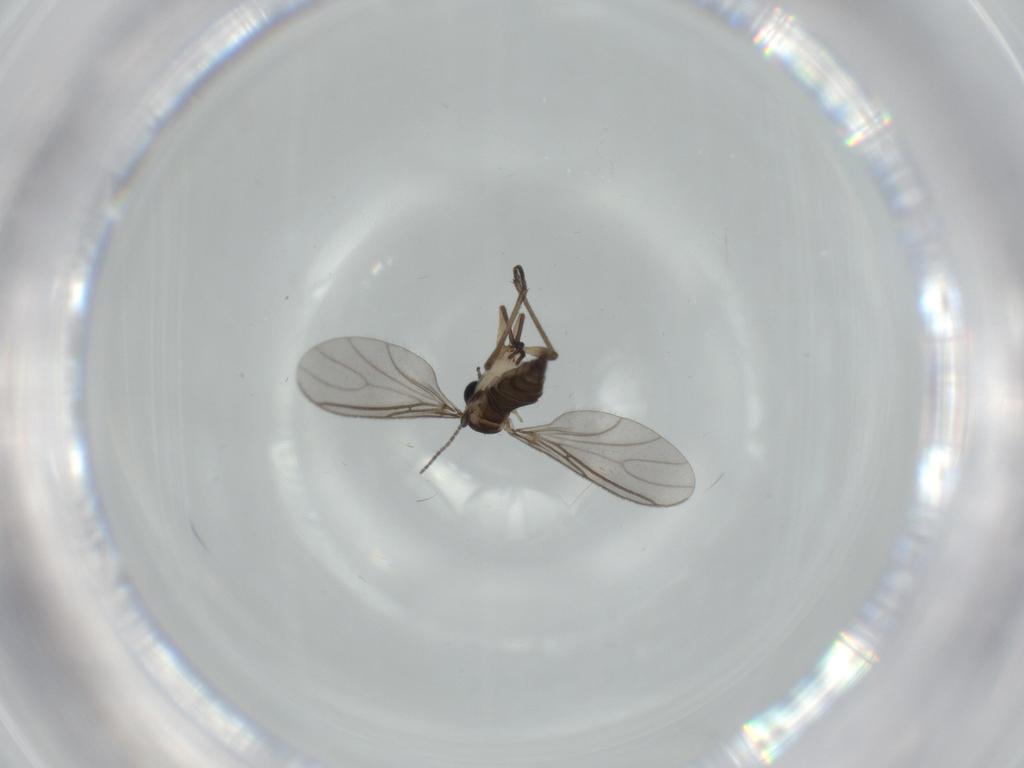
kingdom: Animalia
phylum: Arthropoda
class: Insecta
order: Diptera
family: Sciaridae
